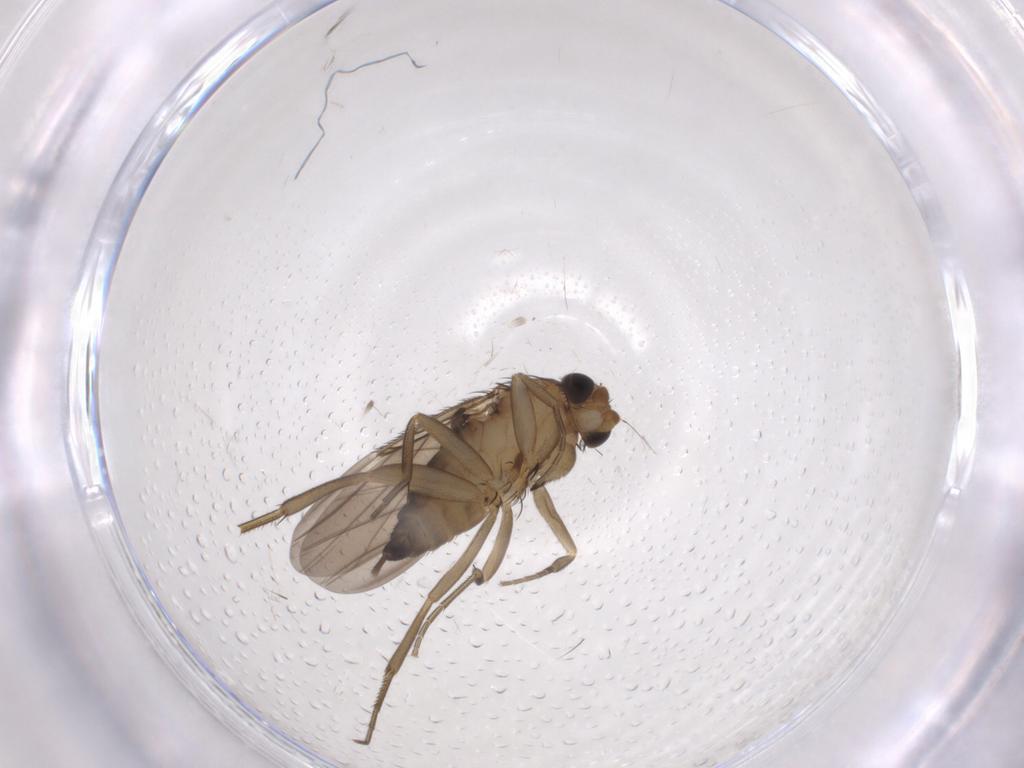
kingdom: Animalia
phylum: Arthropoda
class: Insecta
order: Diptera
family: Phoridae
